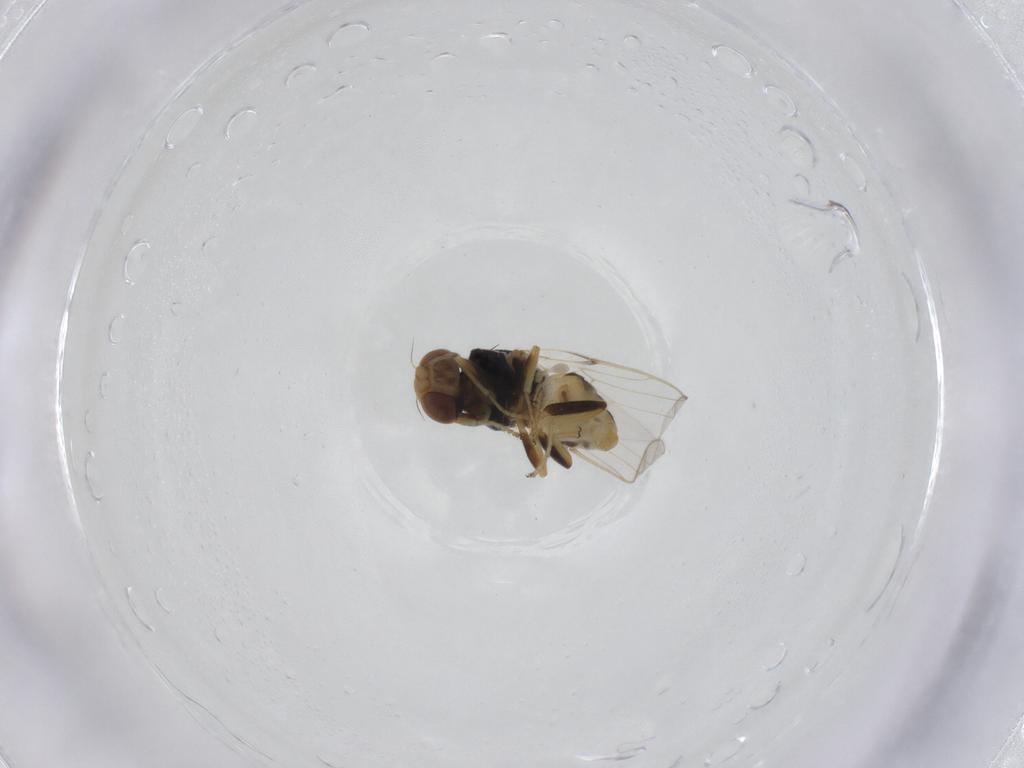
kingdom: Animalia
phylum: Arthropoda
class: Insecta
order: Diptera
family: Chloropidae
